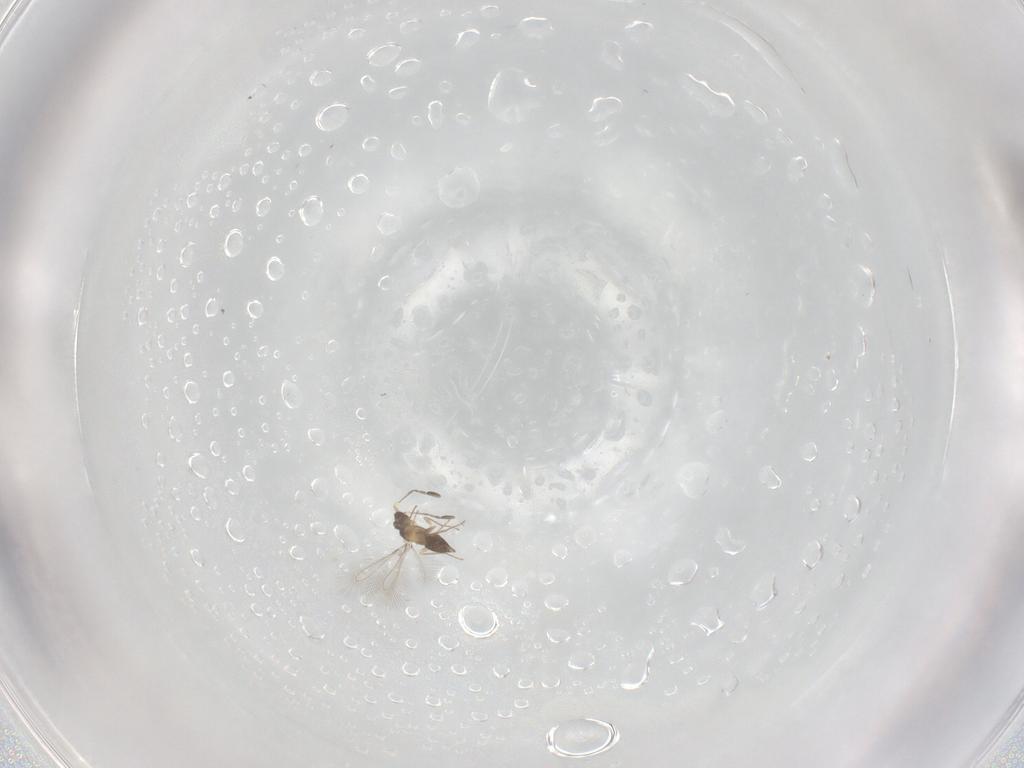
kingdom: Animalia
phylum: Arthropoda
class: Insecta
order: Hymenoptera
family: Mymaridae
